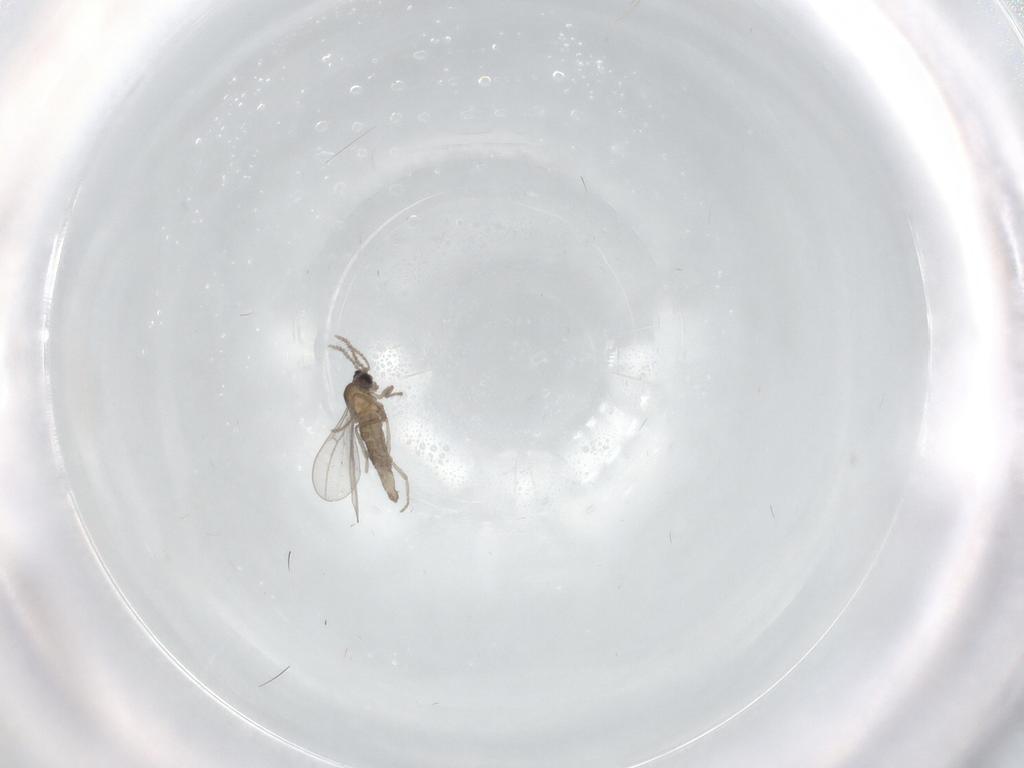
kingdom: Animalia
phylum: Arthropoda
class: Insecta
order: Diptera
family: Cecidomyiidae
